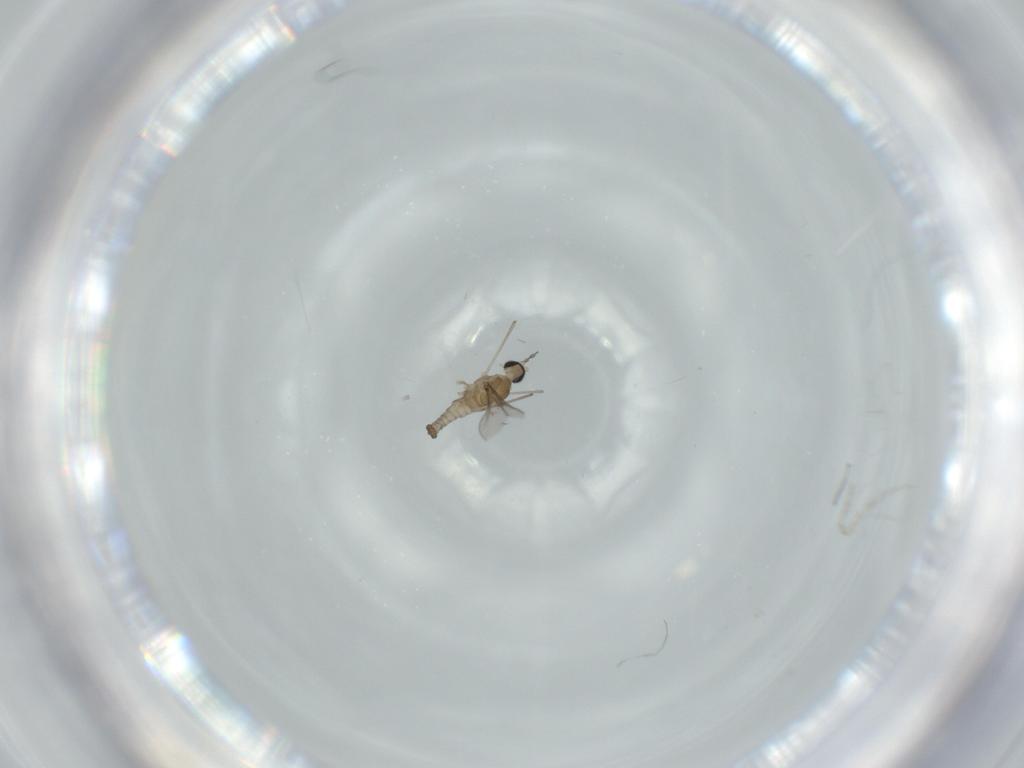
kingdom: Animalia
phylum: Arthropoda
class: Insecta
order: Diptera
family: Cecidomyiidae
